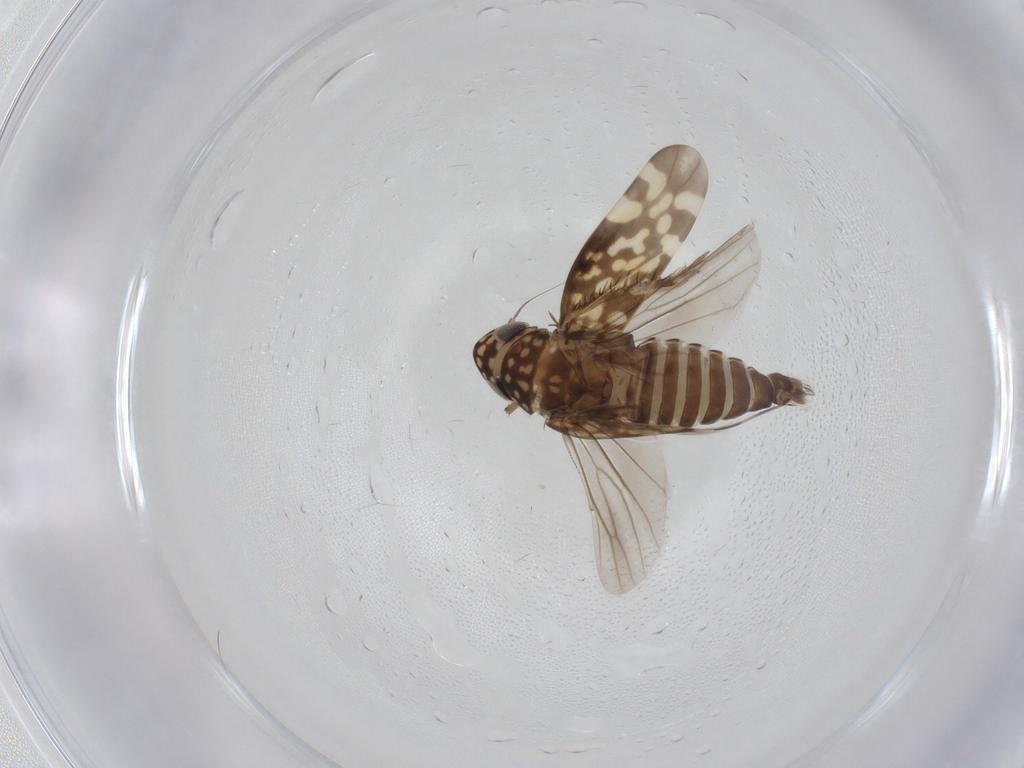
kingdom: Animalia
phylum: Arthropoda
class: Insecta
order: Hemiptera
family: Cicadellidae
